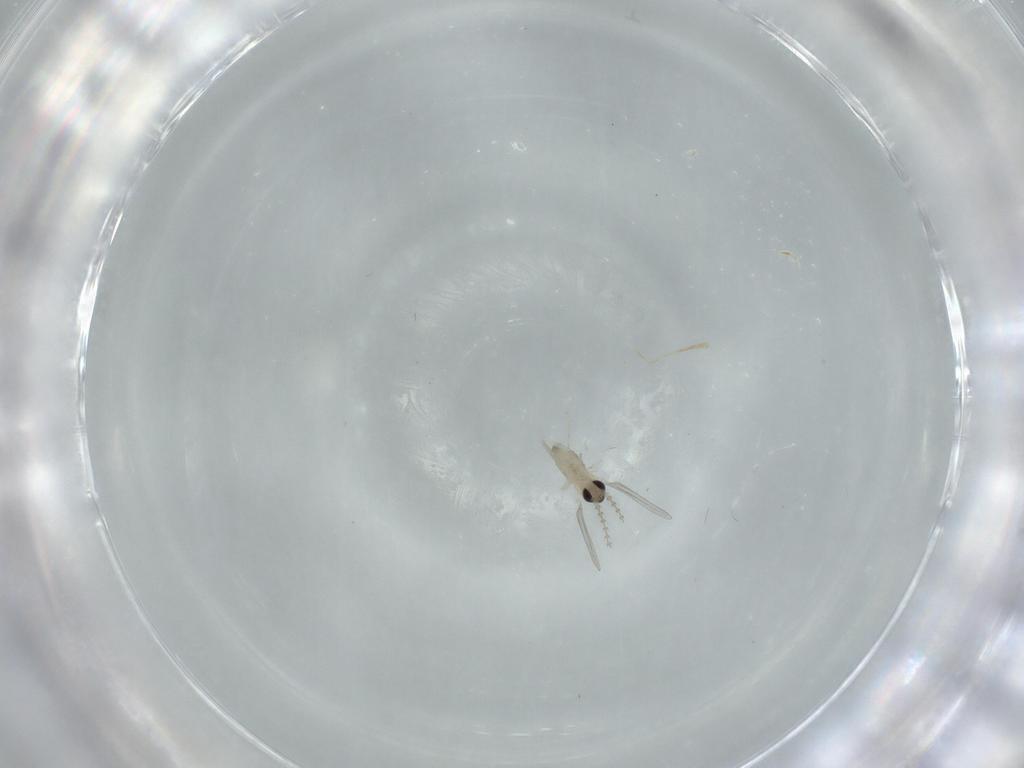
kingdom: Animalia
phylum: Arthropoda
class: Insecta
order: Diptera
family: Cecidomyiidae
